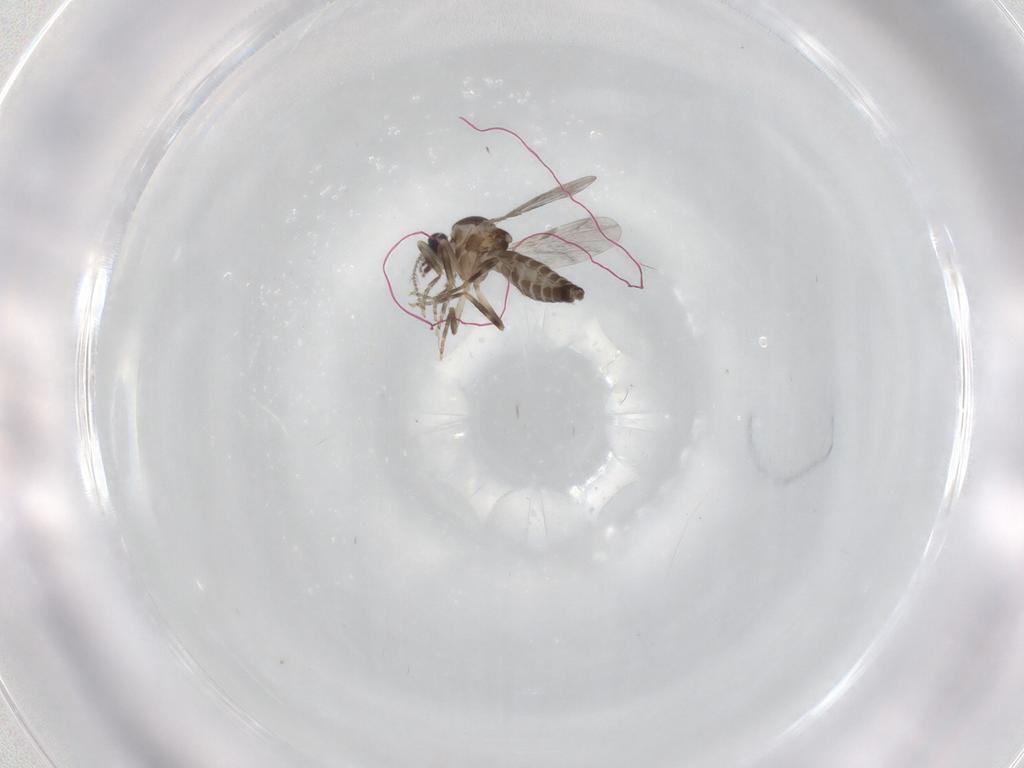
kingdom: Animalia
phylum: Arthropoda
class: Insecta
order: Diptera
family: Ceratopogonidae
